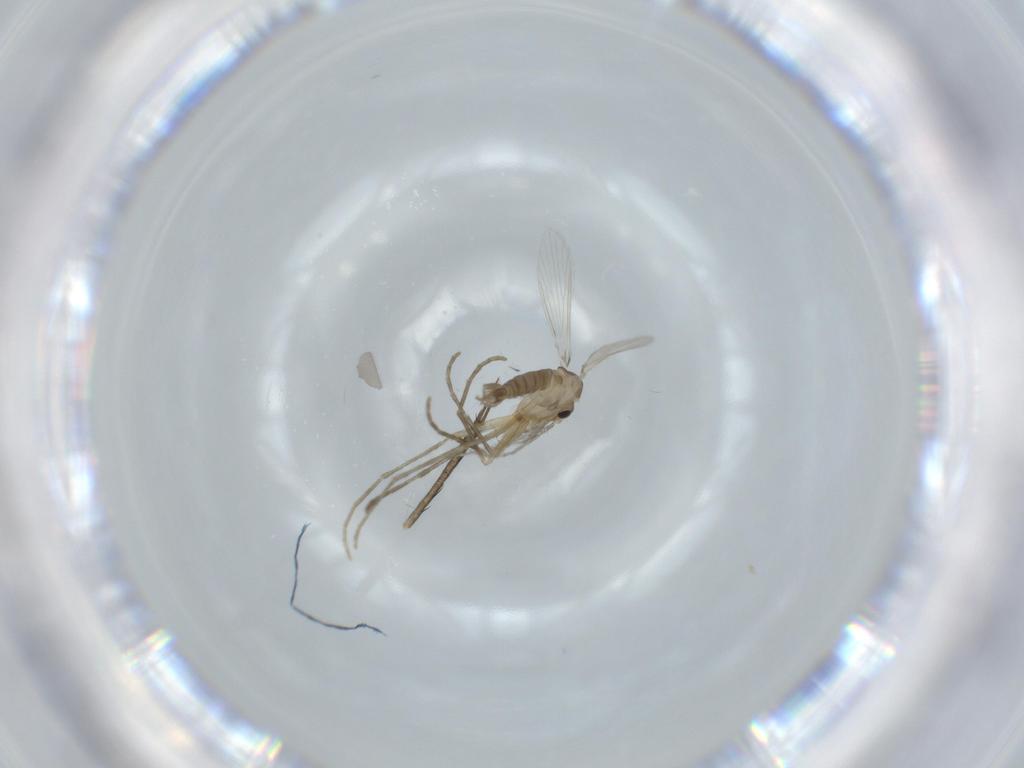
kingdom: Animalia
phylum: Arthropoda
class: Insecta
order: Diptera
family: Psychodidae
